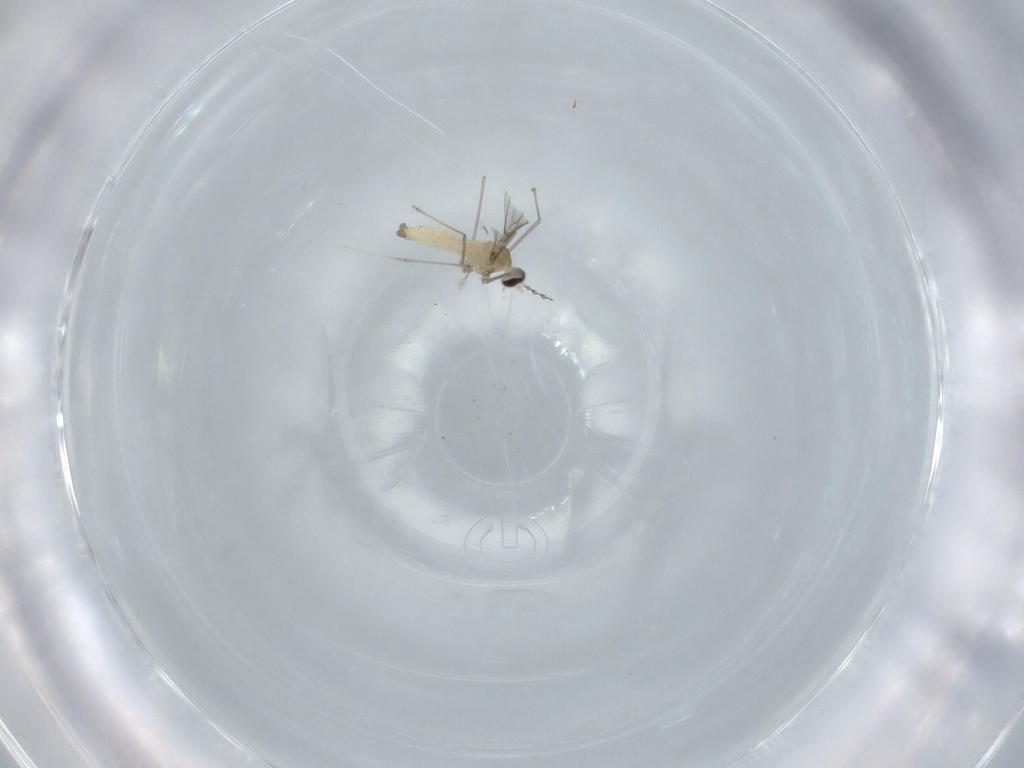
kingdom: Animalia
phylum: Arthropoda
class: Insecta
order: Diptera
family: Cecidomyiidae
